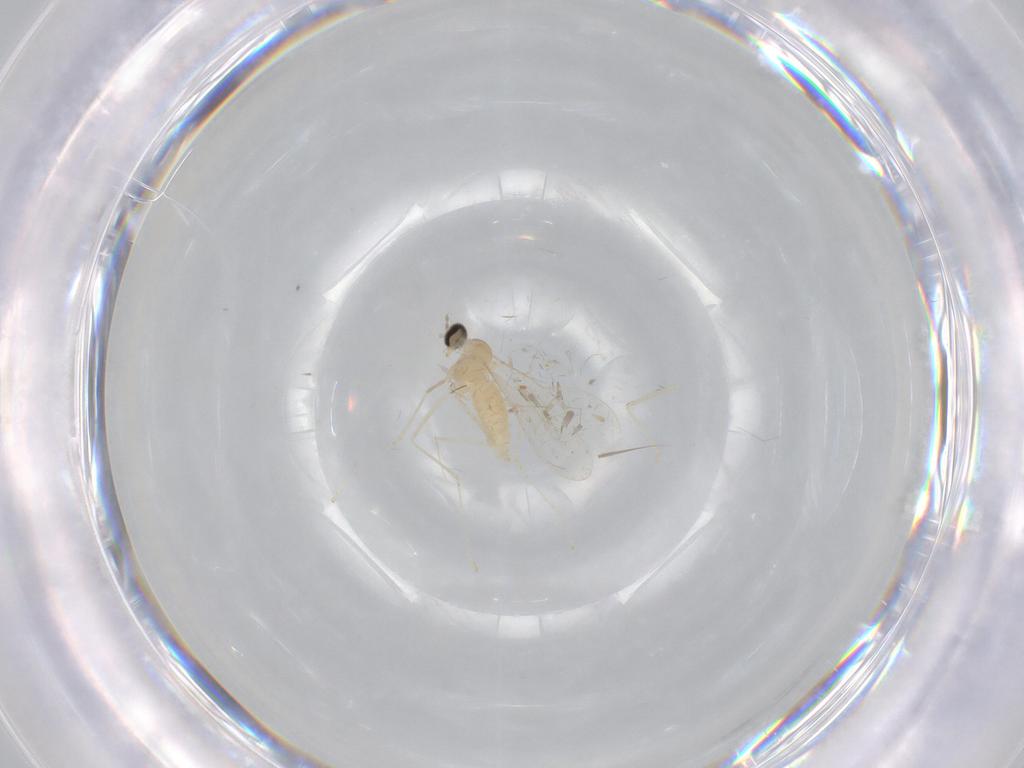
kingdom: Animalia
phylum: Arthropoda
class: Insecta
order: Diptera
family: Cecidomyiidae
